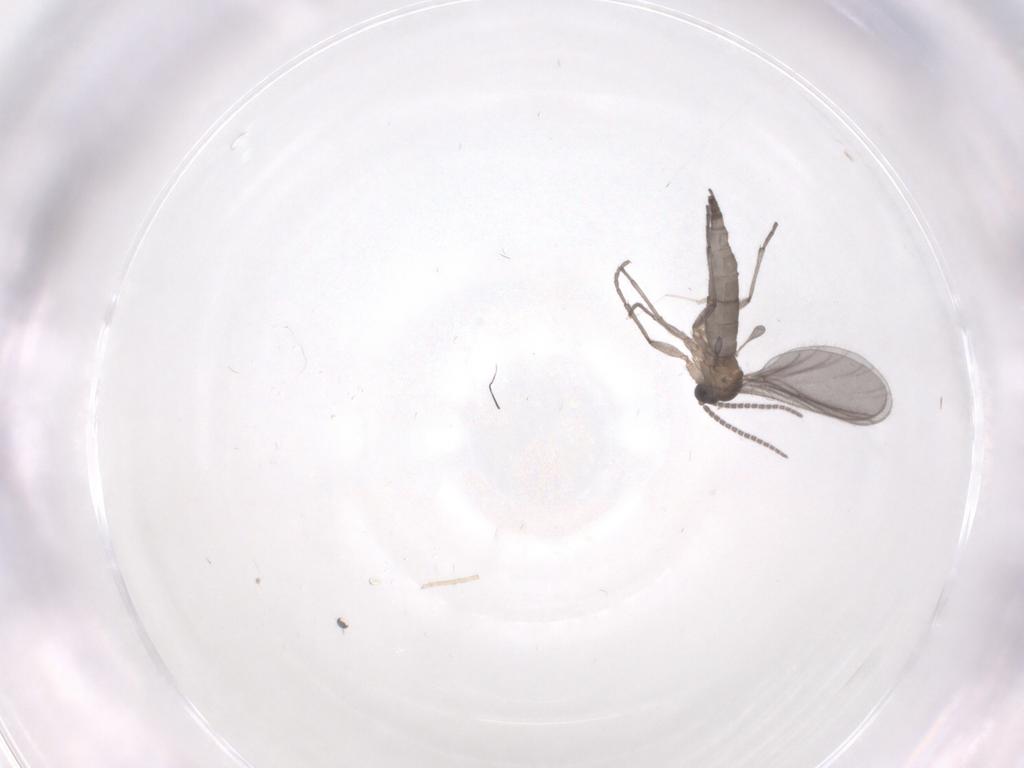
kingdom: Animalia
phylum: Arthropoda
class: Insecta
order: Diptera
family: Sciaridae
